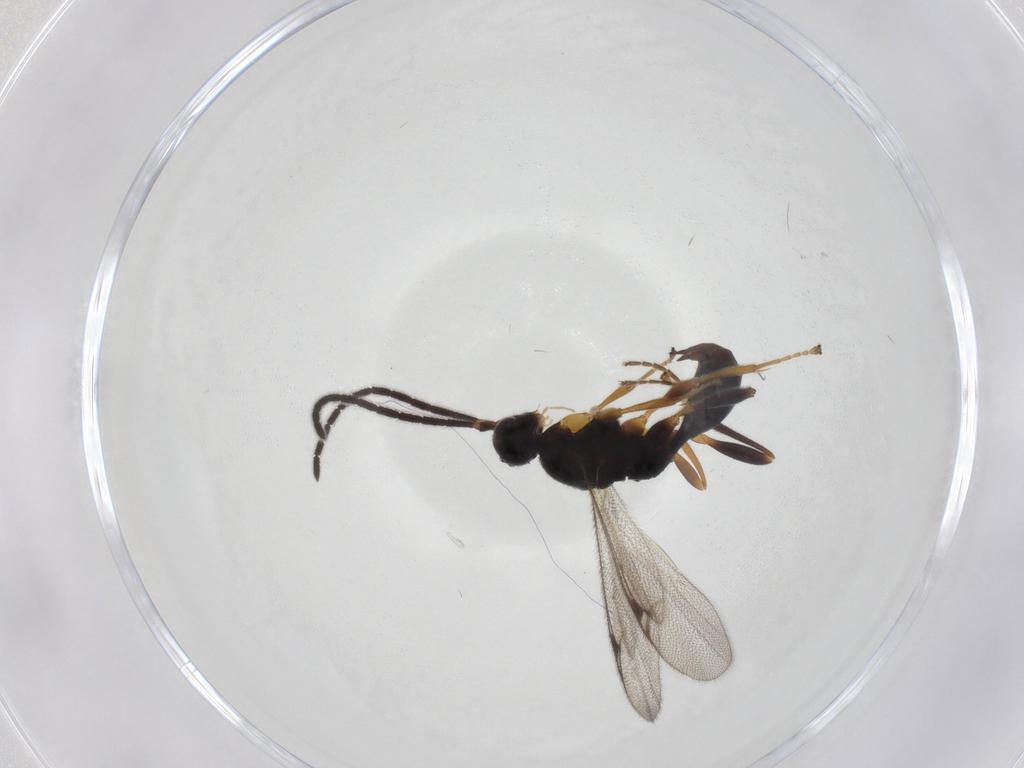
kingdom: Animalia
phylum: Arthropoda
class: Insecta
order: Hymenoptera
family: Proctotrupidae
